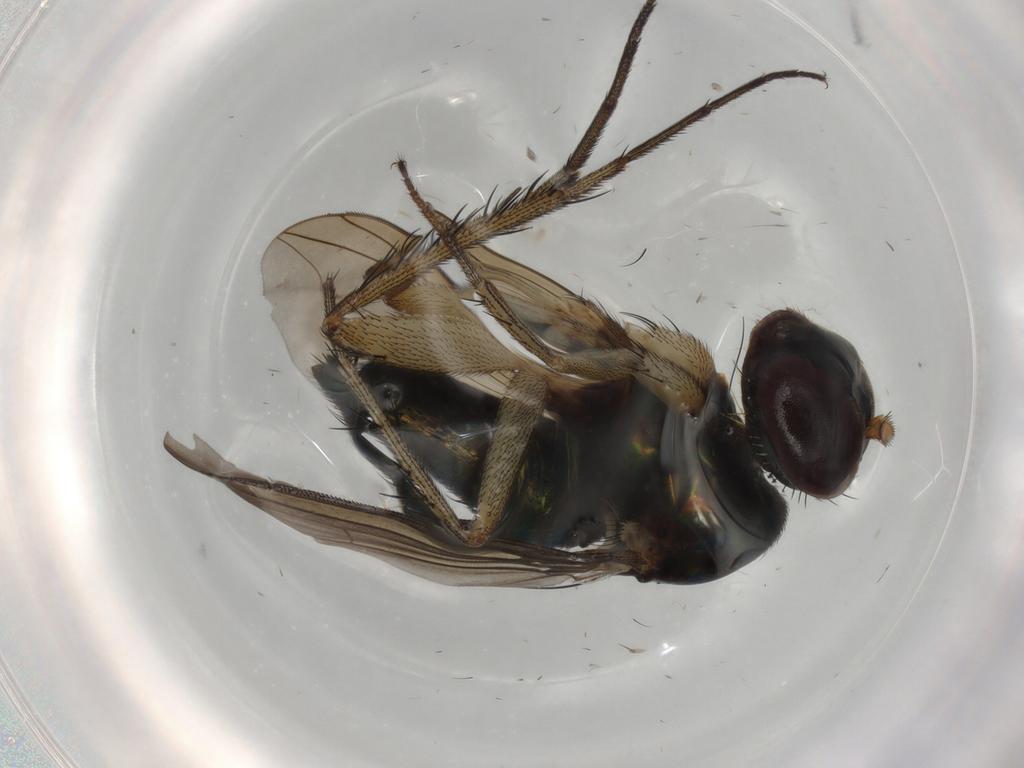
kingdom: Animalia
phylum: Arthropoda
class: Insecta
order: Diptera
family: Dolichopodidae
